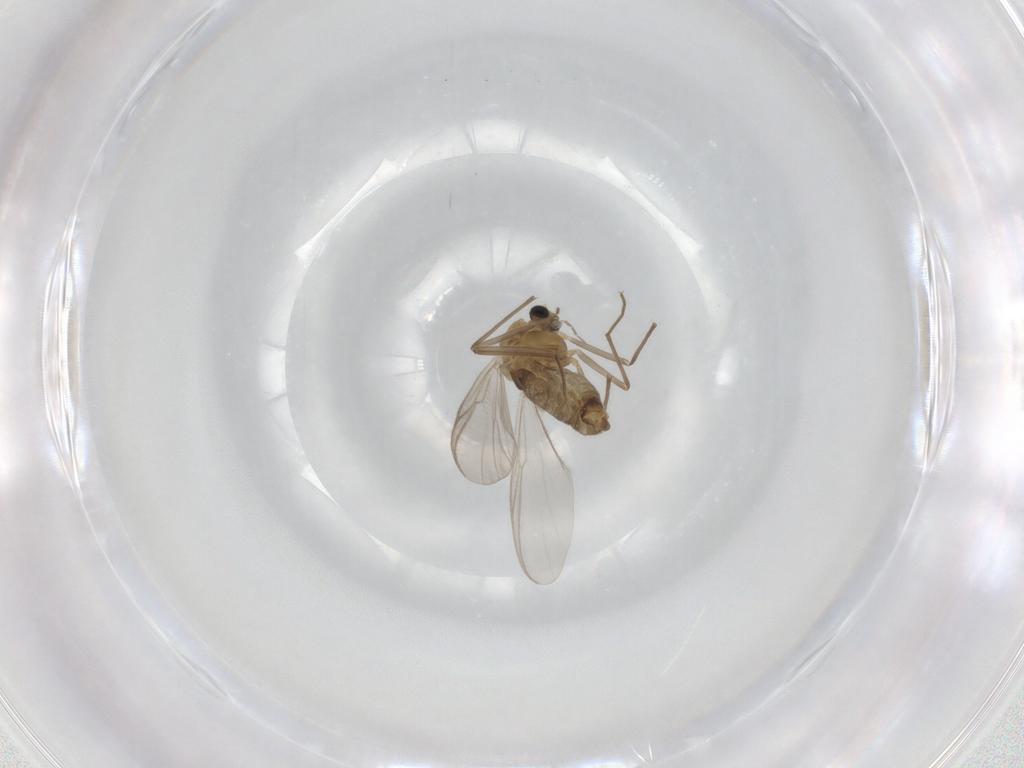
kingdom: Animalia
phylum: Arthropoda
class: Insecta
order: Diptera
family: Chironomidae
